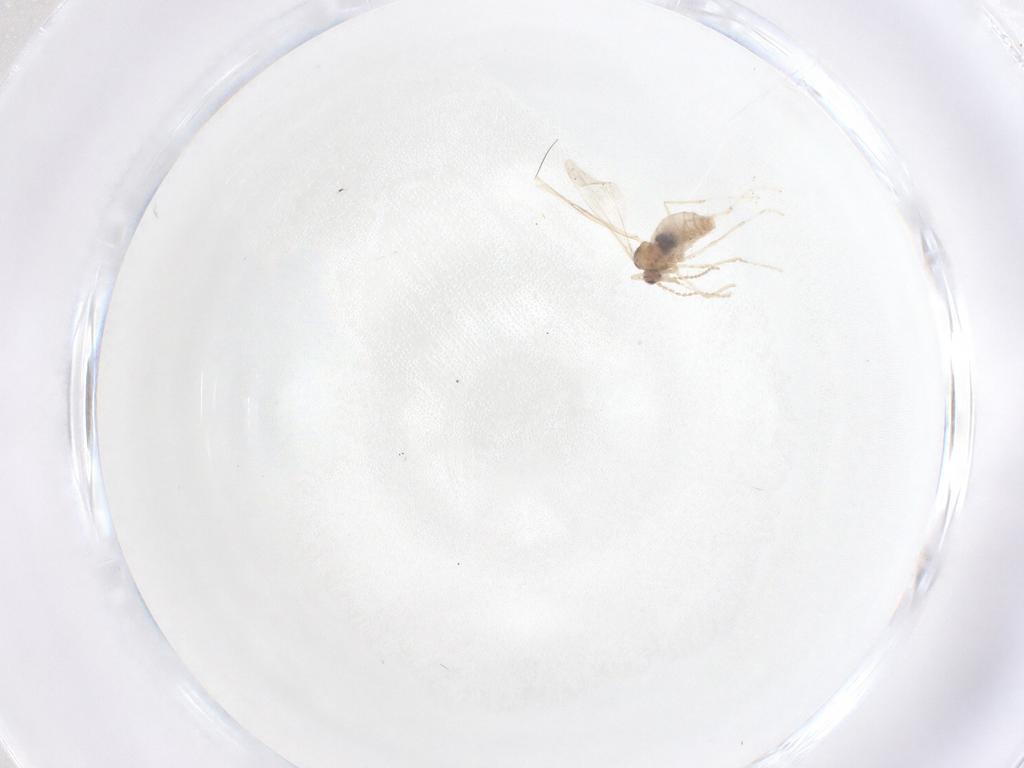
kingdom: Animalia
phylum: Arthropoda
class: Insecta
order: Diptera
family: Cecidomyiidae
